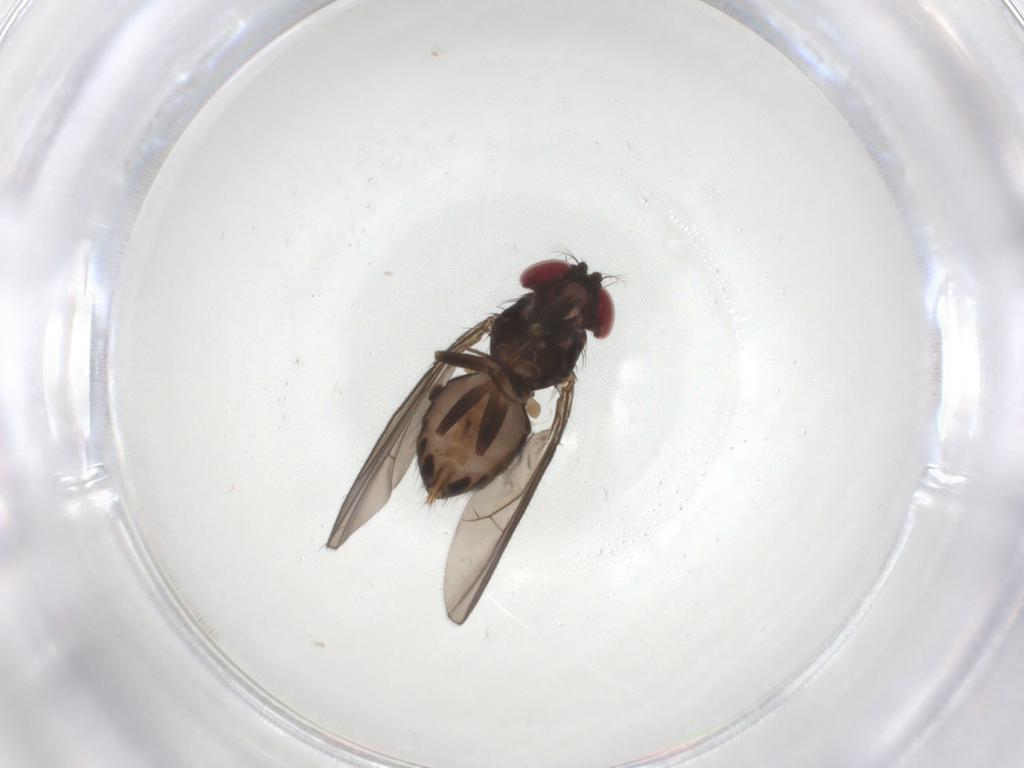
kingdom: Animalia
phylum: Arthropoda
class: Insecta
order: Diptera
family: Drosophilidae
